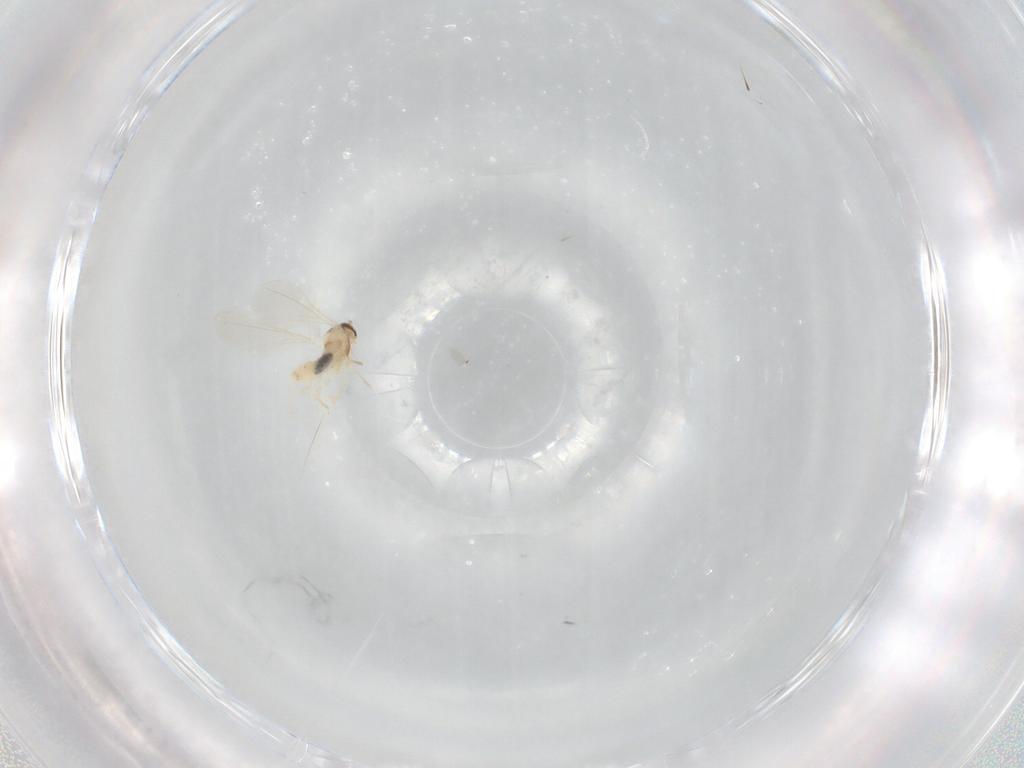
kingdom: Animalia
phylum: Arthropoda
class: Insecta
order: Diptera
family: Cecidomyiidae
